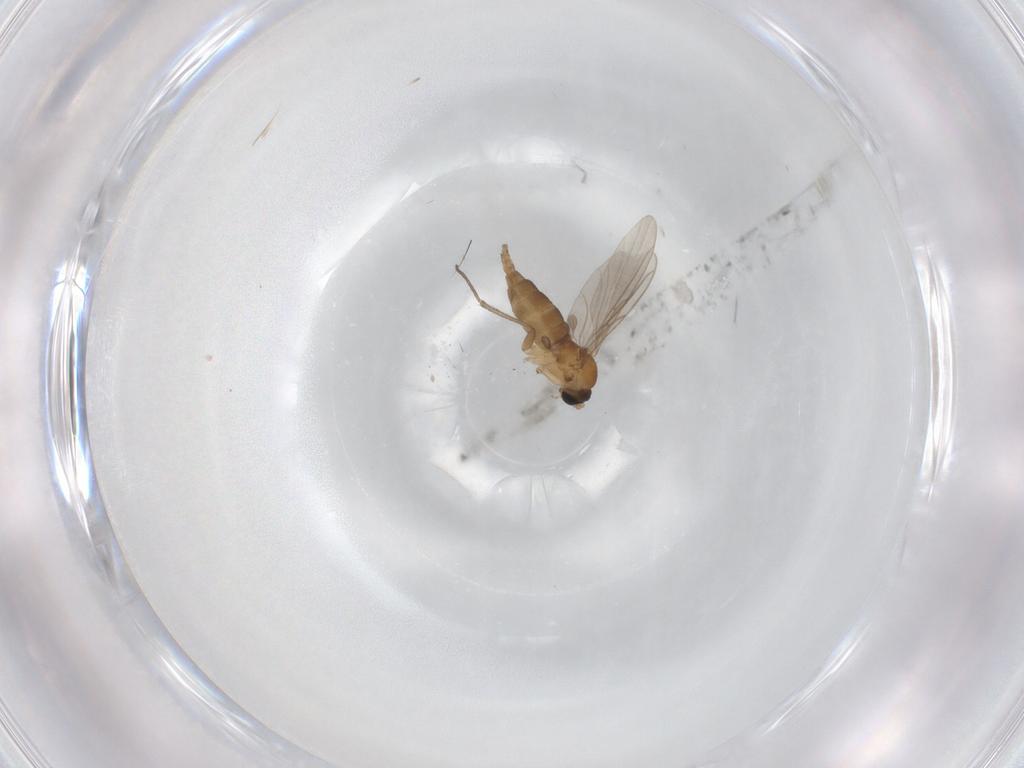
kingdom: Animalia
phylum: Arthropoda
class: Insecta
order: Diptera
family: Sciaridae
